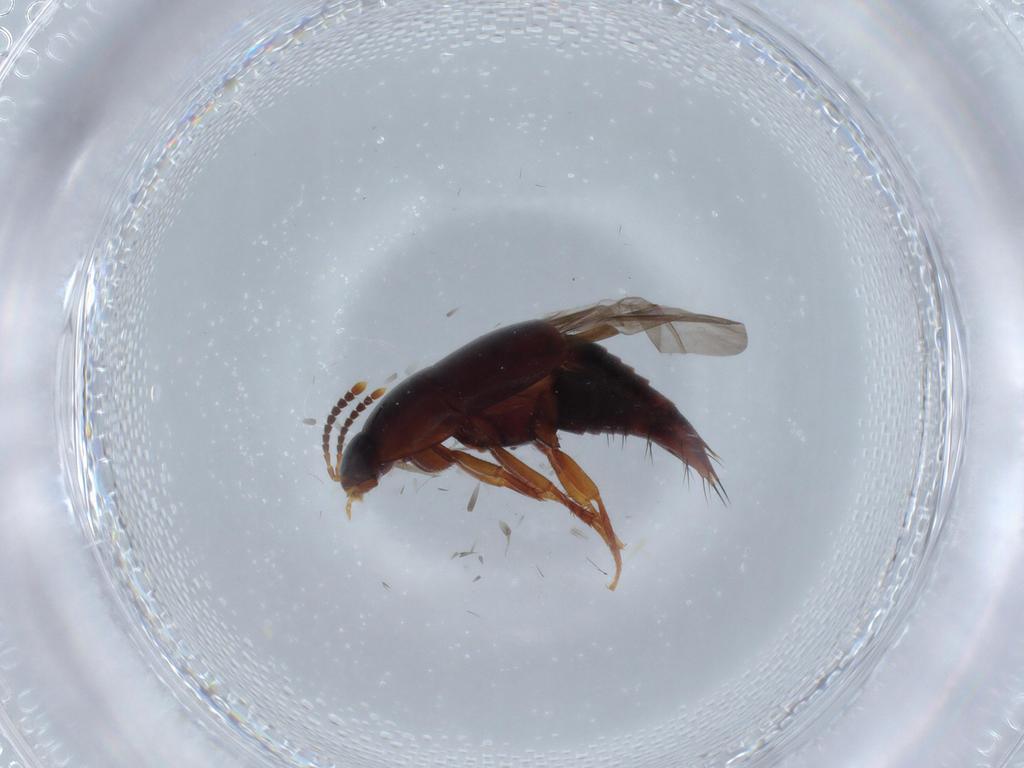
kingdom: Animalia
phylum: Arthropoda
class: Insecta
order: Coleoptera
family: Staphylinidae
